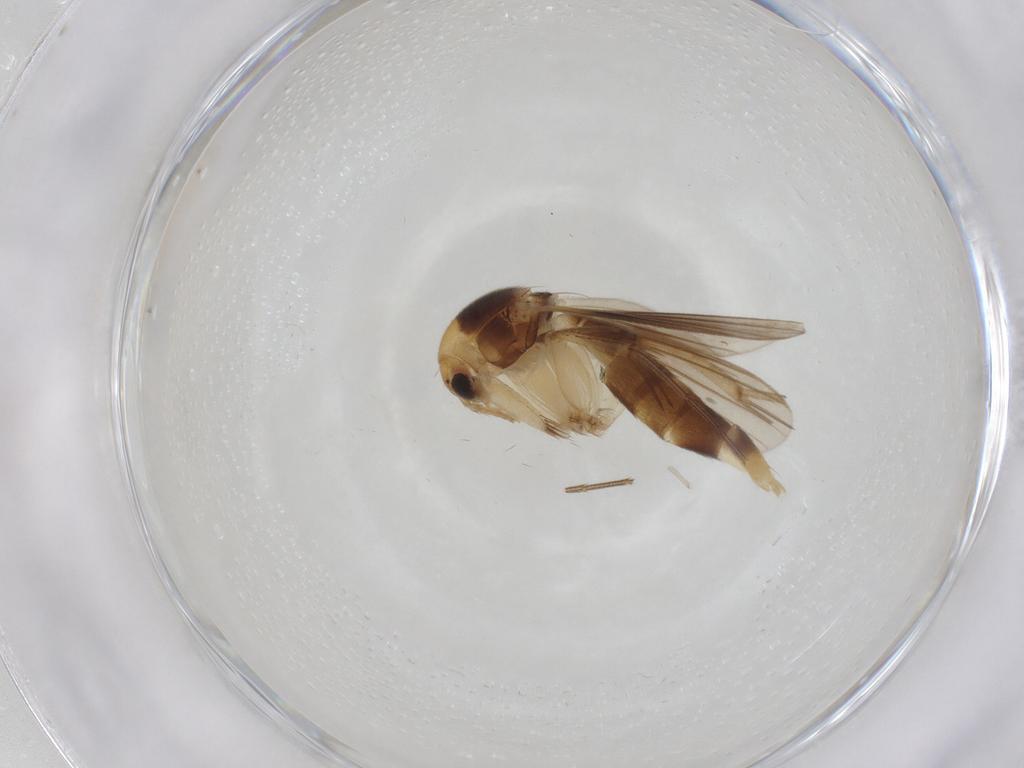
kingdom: Animalia
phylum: Arthropoda
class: Insecta
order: Diptera
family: Mycetophilidae
